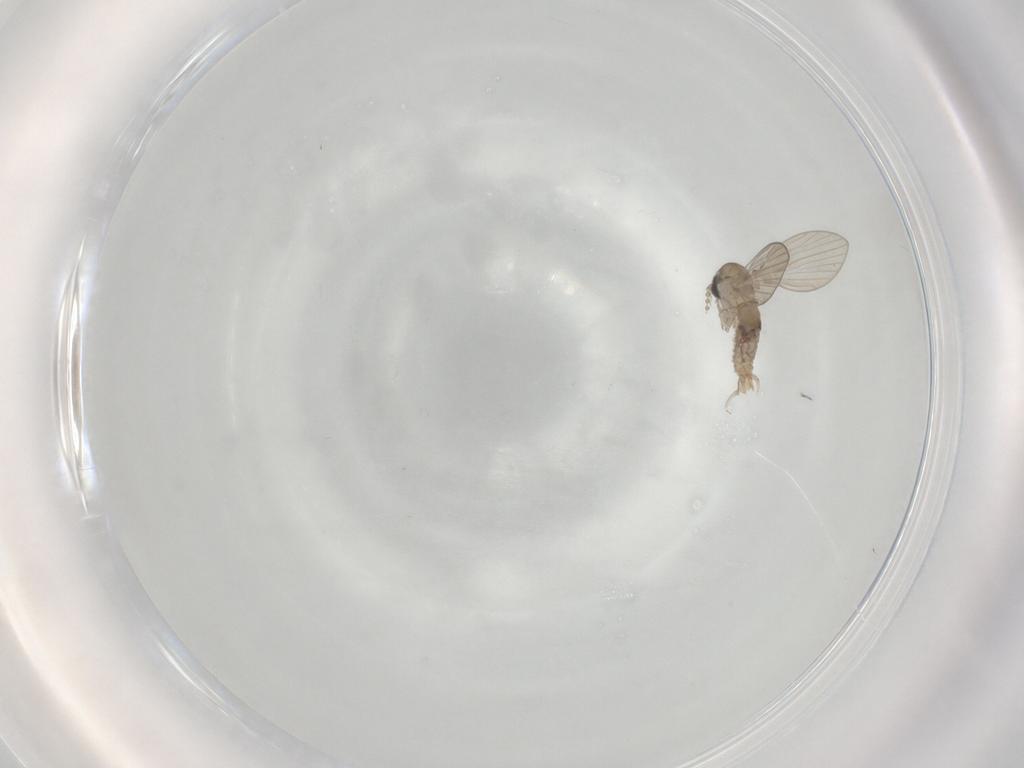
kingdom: Animalia
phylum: Arthropoda
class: Insecta
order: Diptera
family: Psychodidae
